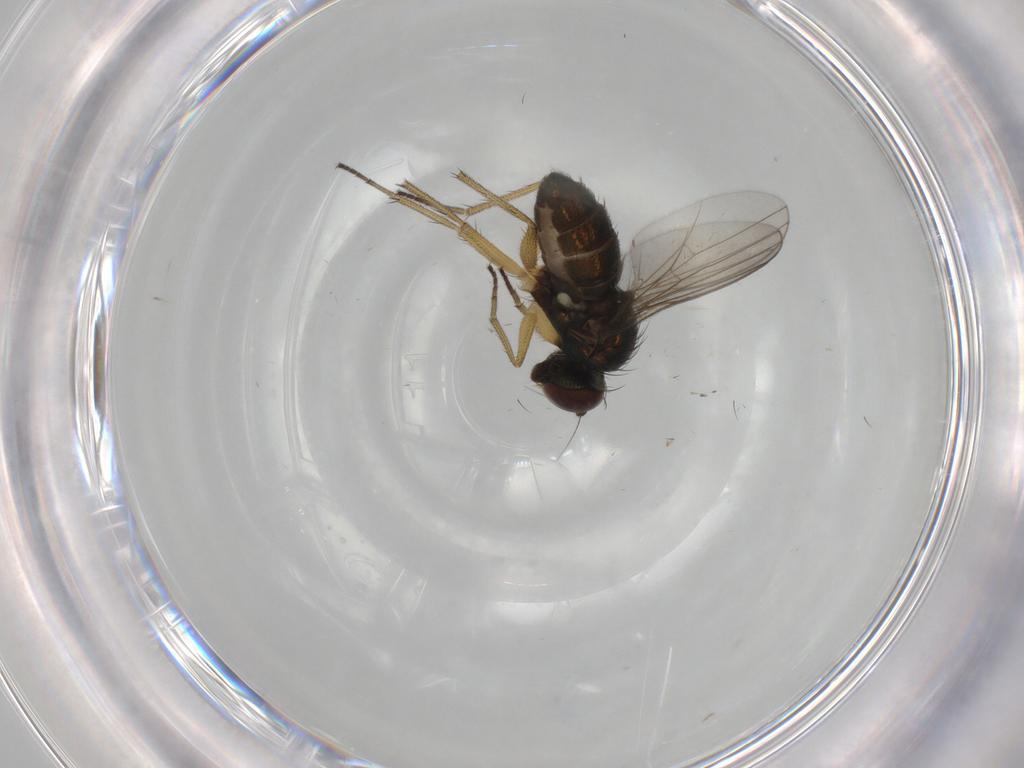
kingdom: Animalia
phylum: Arthropoda
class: Insecta
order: Diptera
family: Dolichopodidae
